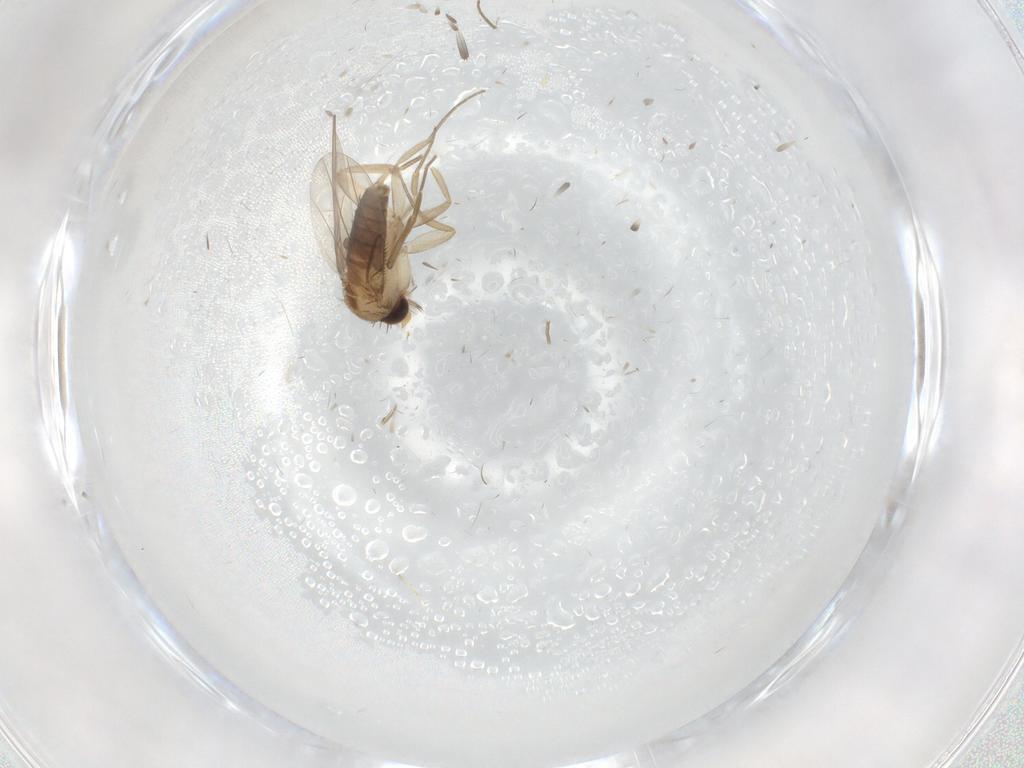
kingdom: Animalia
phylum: Arthropoda
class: Insecta
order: Diptera
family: Phoridae
